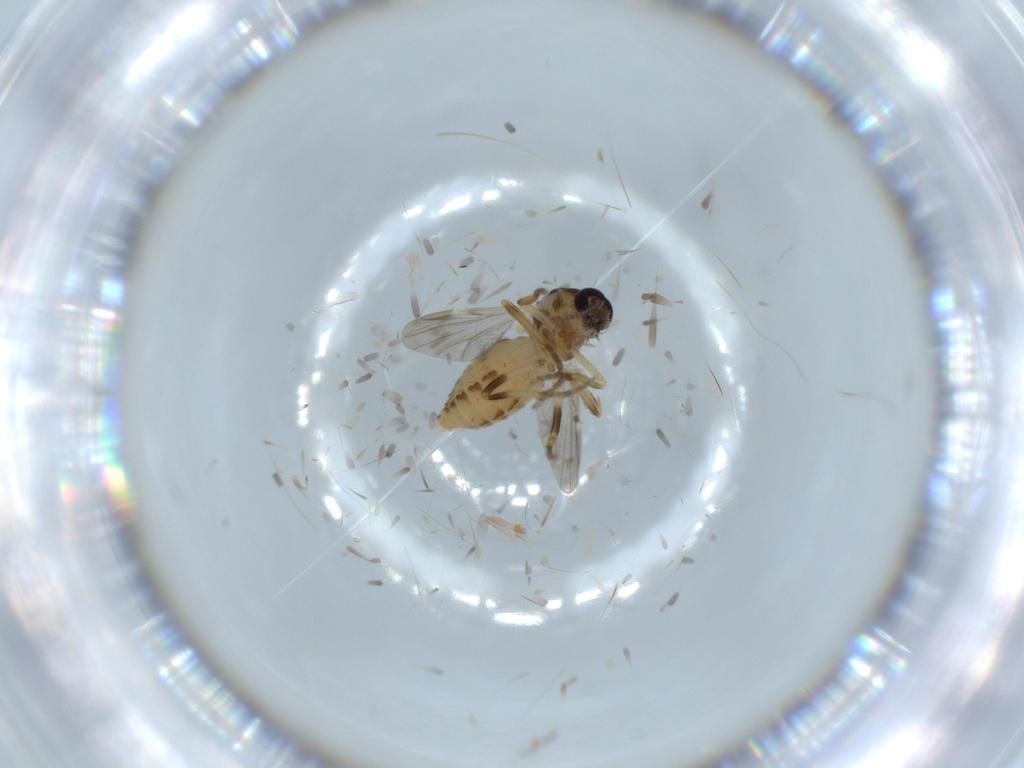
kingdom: Animalia
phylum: Arthropoda
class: Insecta
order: Diptera
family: Ceratopogonidae
